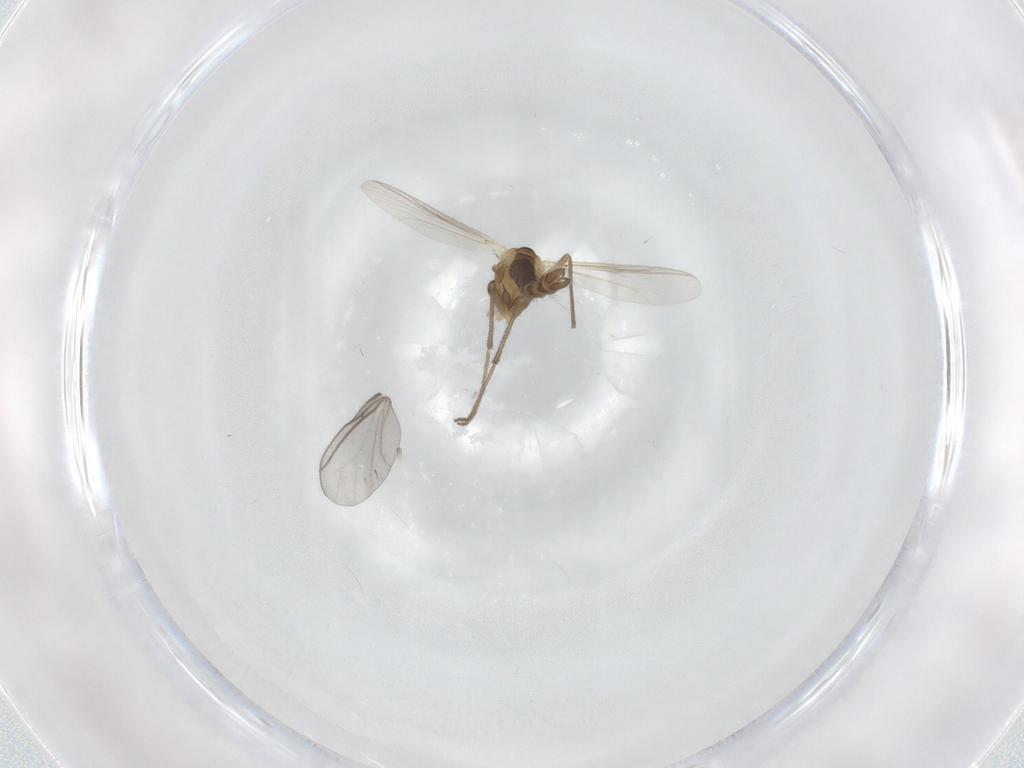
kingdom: Animalia
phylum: Arthropoda
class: Insecta
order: Diptera
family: Chironomidae
